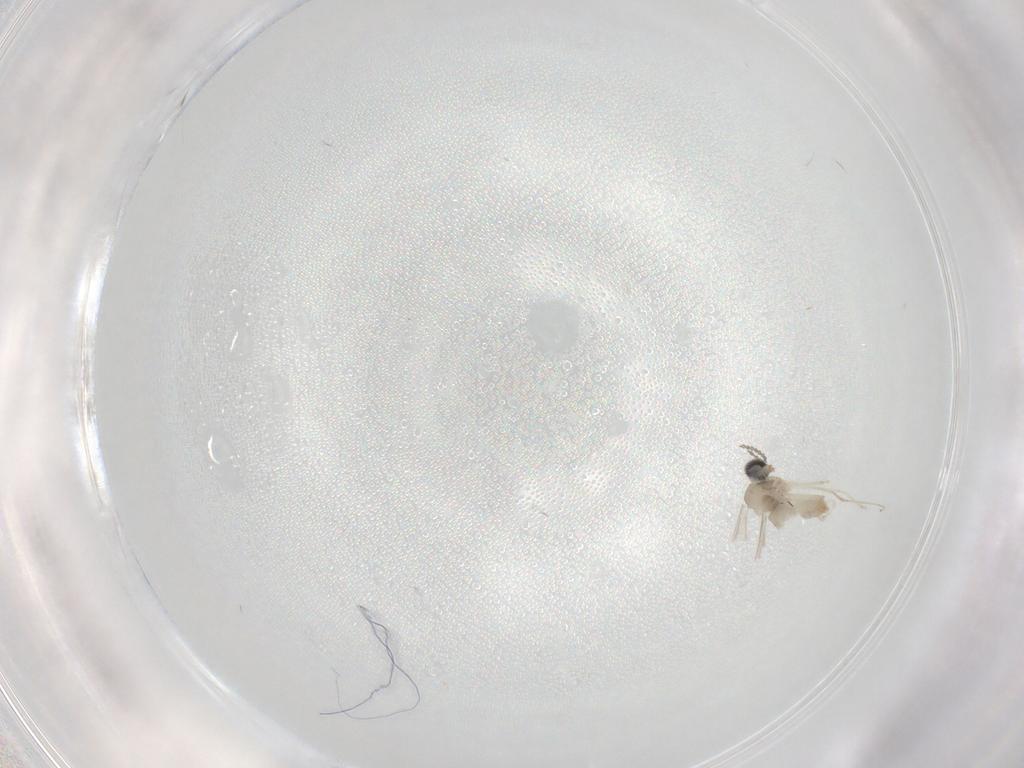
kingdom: Animalia
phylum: Arthropoda
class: Insecta
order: Diptera
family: Cecidomyiidae
